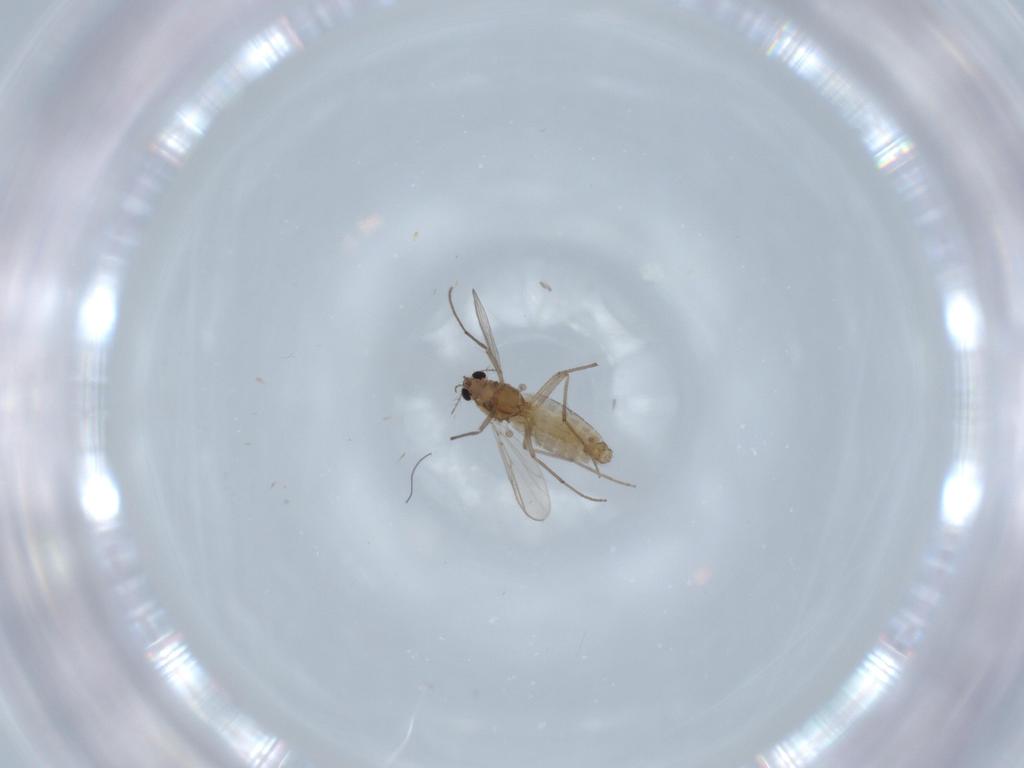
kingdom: Animalia
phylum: Arthropoda
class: Insecta
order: Diptera
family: Chironomidae
